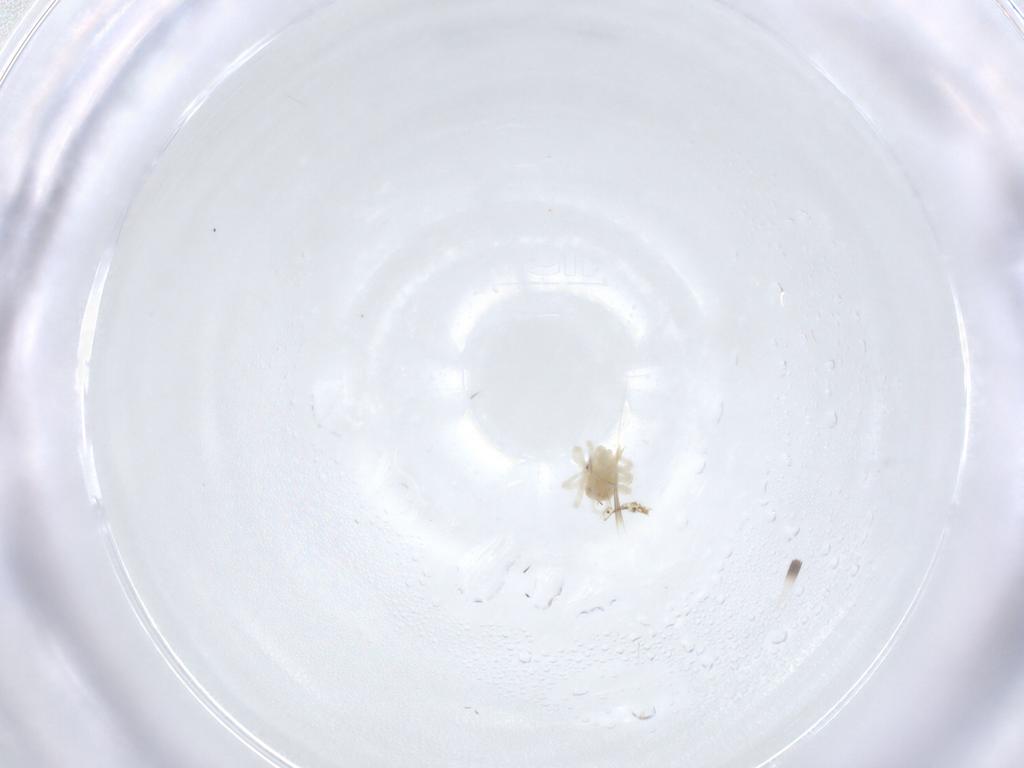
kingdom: Animalia
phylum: Arthropoda
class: Arachnida
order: Trombidiformes
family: Anystidae
